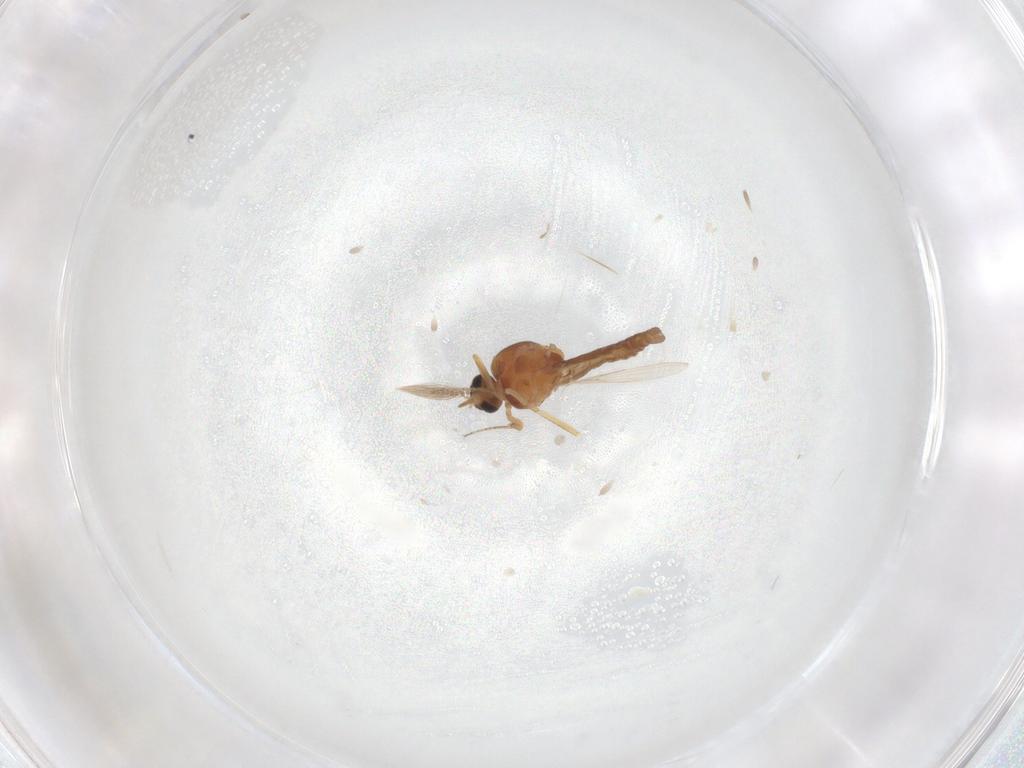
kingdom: Animalia
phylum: Arthropoda
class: Insecta
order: Diptera
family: Ceratopogonidae
